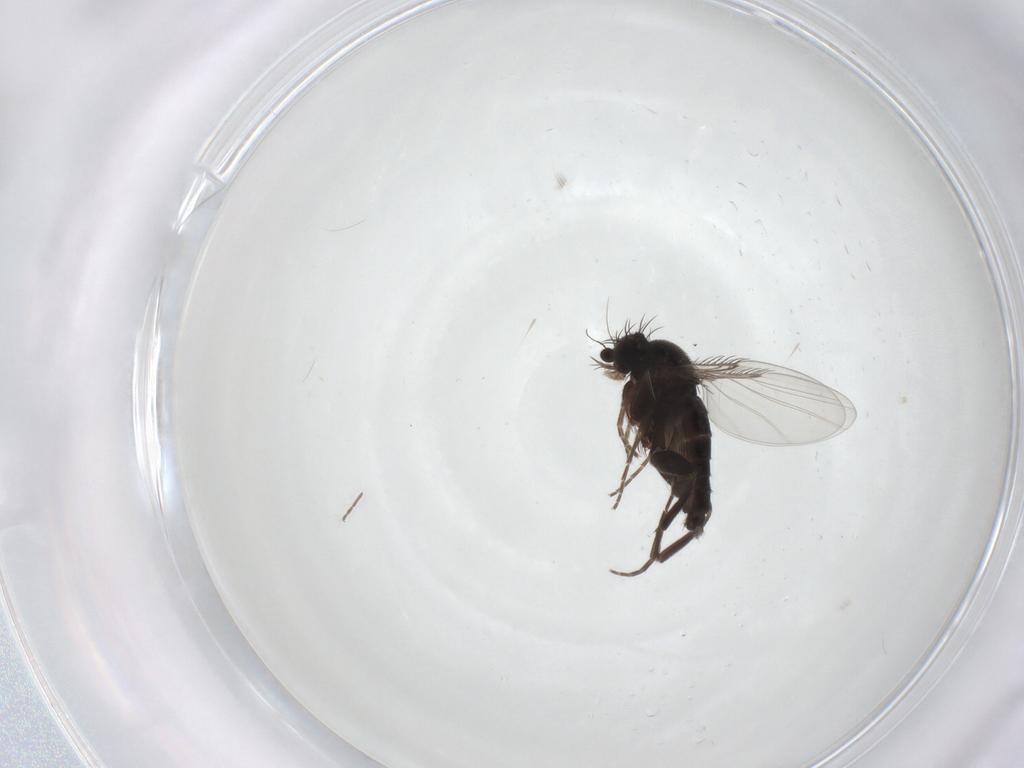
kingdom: Animalia
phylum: Arthropoda
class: Insecta
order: Diptera
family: Phoridae
